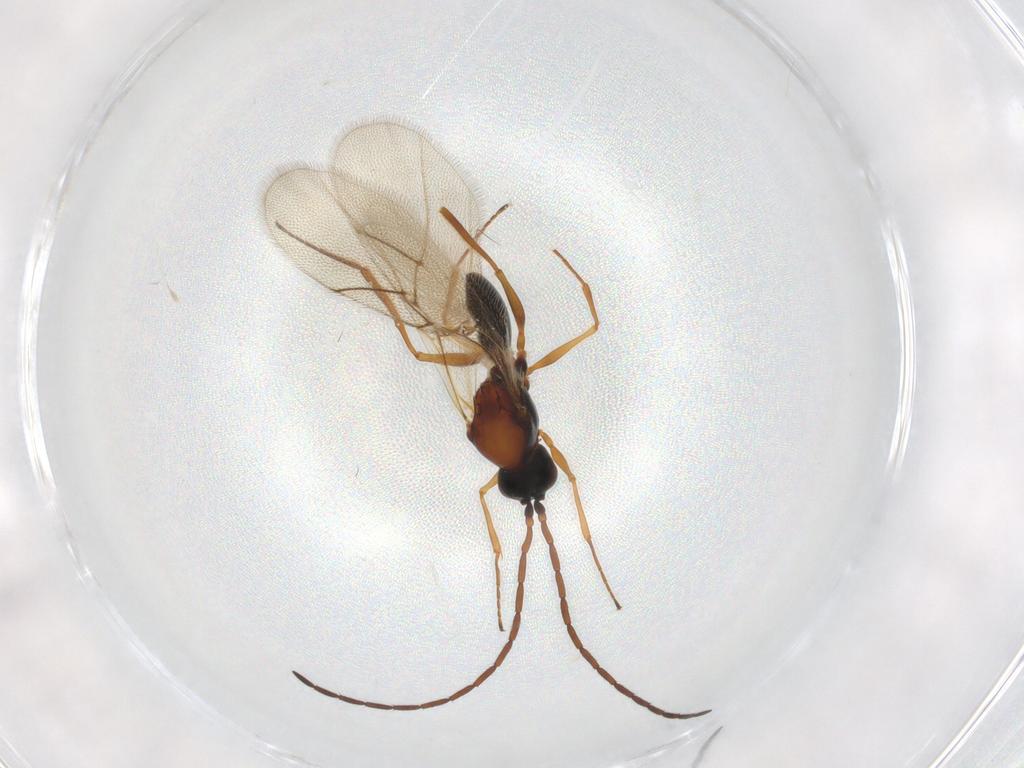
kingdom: Animalia
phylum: Arthropoda
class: Insecta
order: Hymenoptera
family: Figitidae
